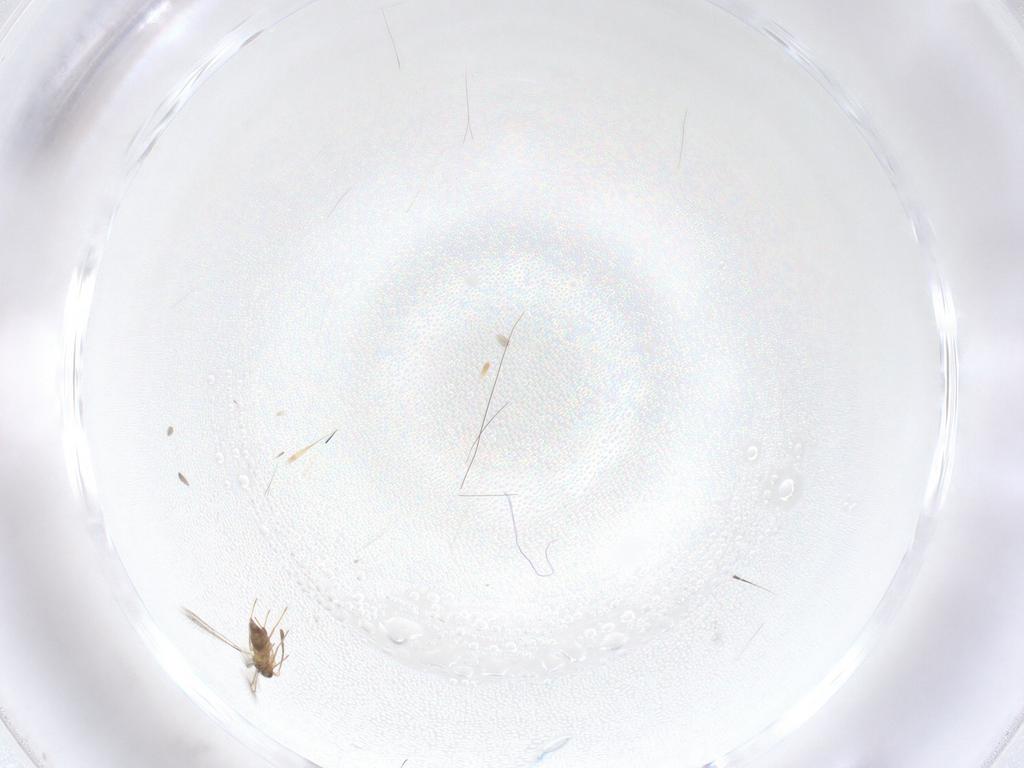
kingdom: Animalia
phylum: Arthropoda
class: Insecta
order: Hymenoptera
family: Mymaridae
